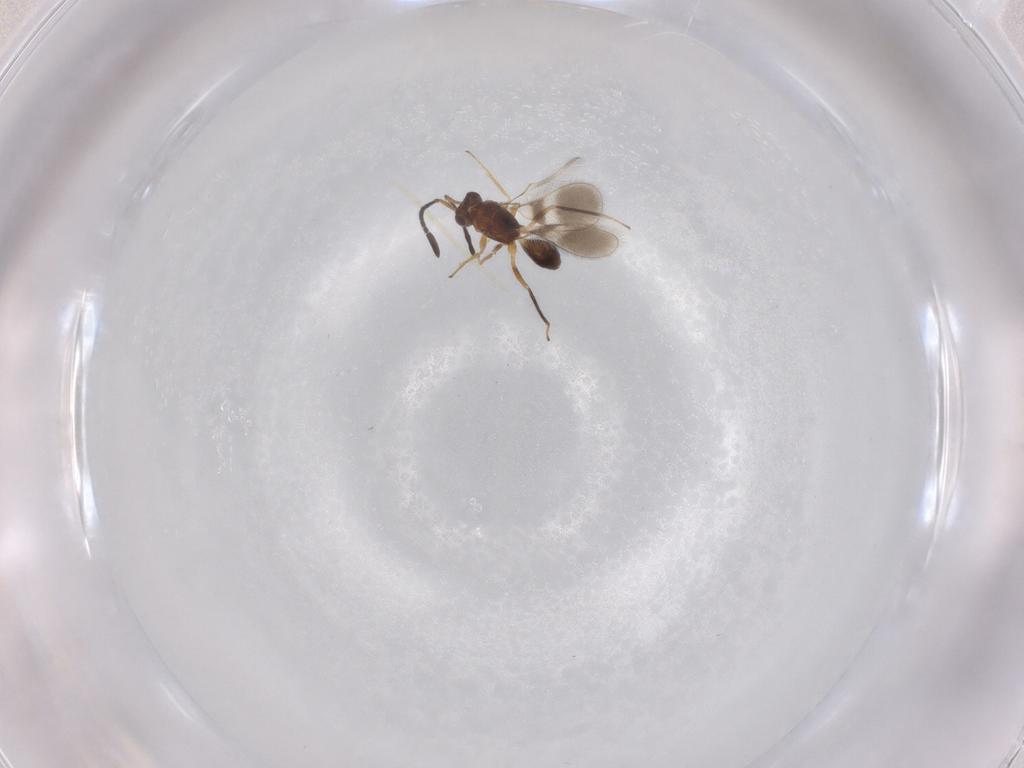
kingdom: Animalia
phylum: Arthropoda
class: Insecta
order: Hymenoptera
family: Mymaridae
